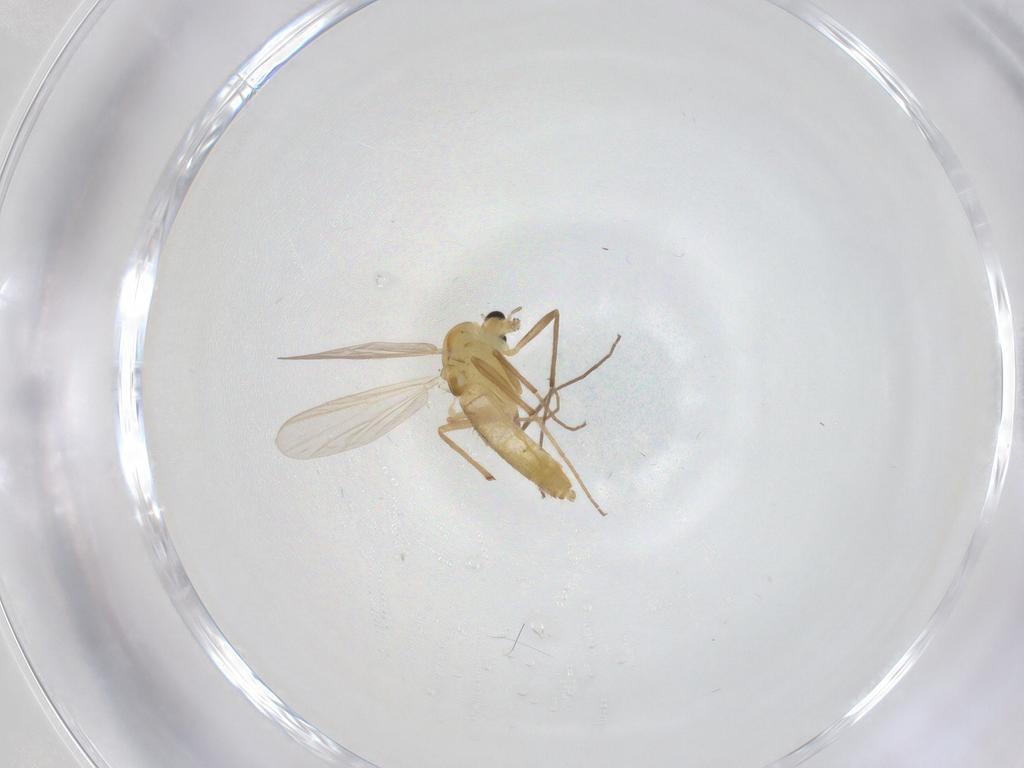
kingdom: Animalia
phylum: Arthropoda
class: Insecta
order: Diptera
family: Chironomidae
